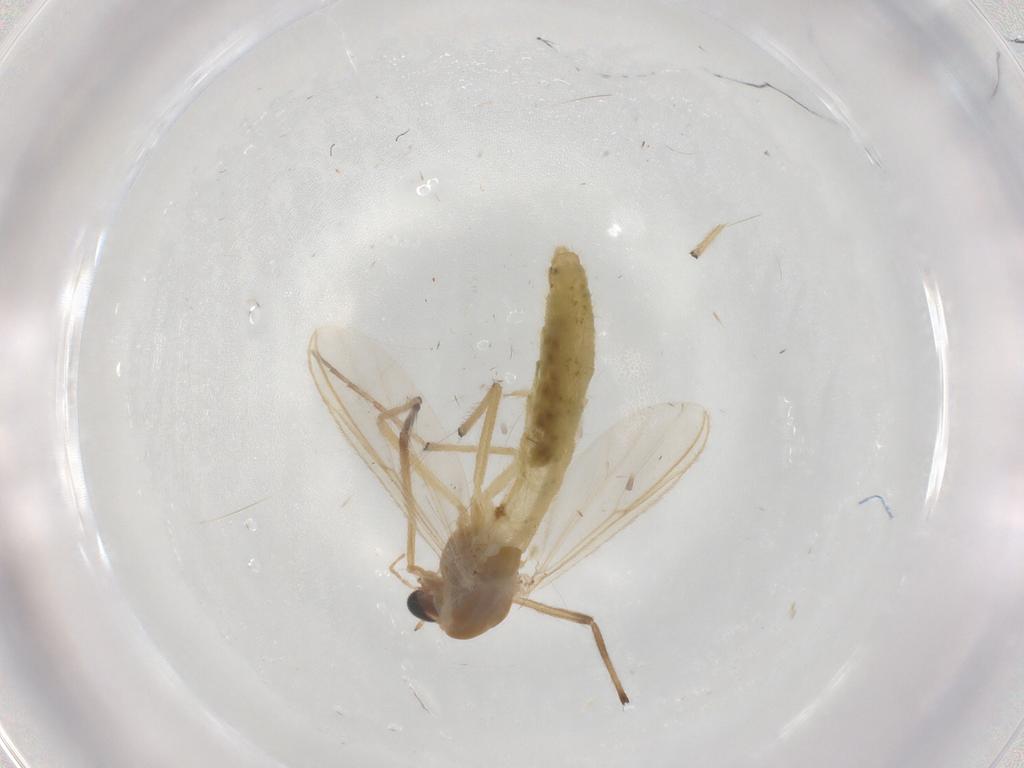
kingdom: Animalia
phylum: Arthropoda
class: Insecta
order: Diptera
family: Chironomidae
